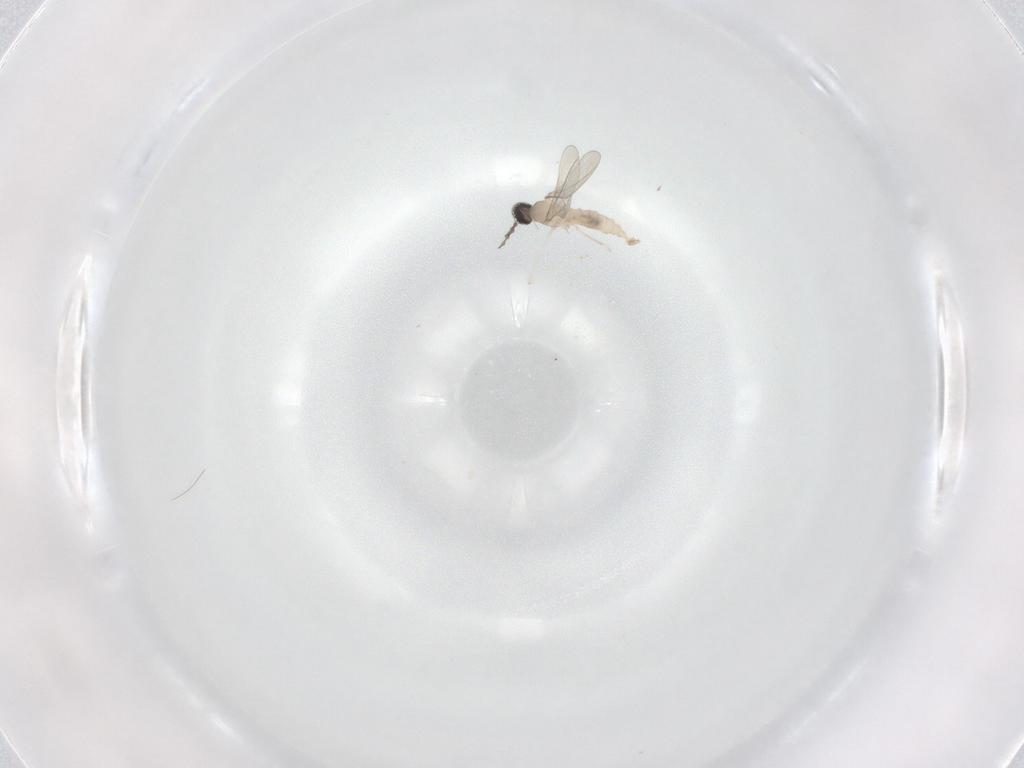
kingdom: Animalia
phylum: Arthropoda
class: Insecta
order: Diptera
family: Cecidomyiidae
